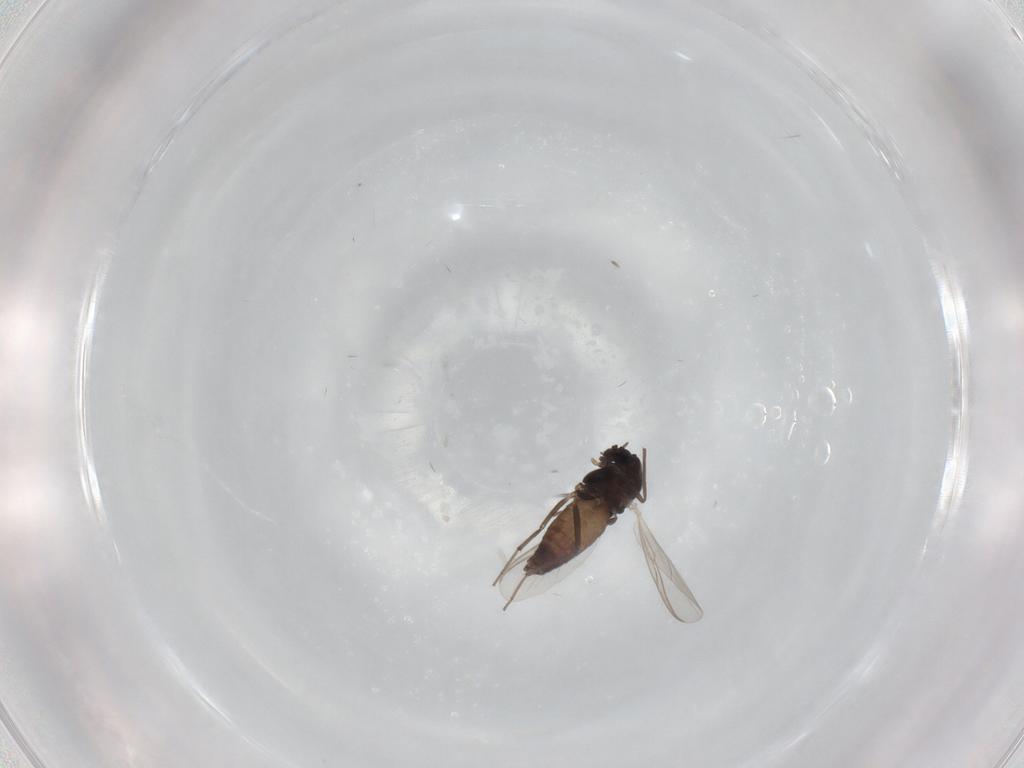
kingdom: Animalia
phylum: Arthropoda
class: Insecta
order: Diptera
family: Chironomidae
